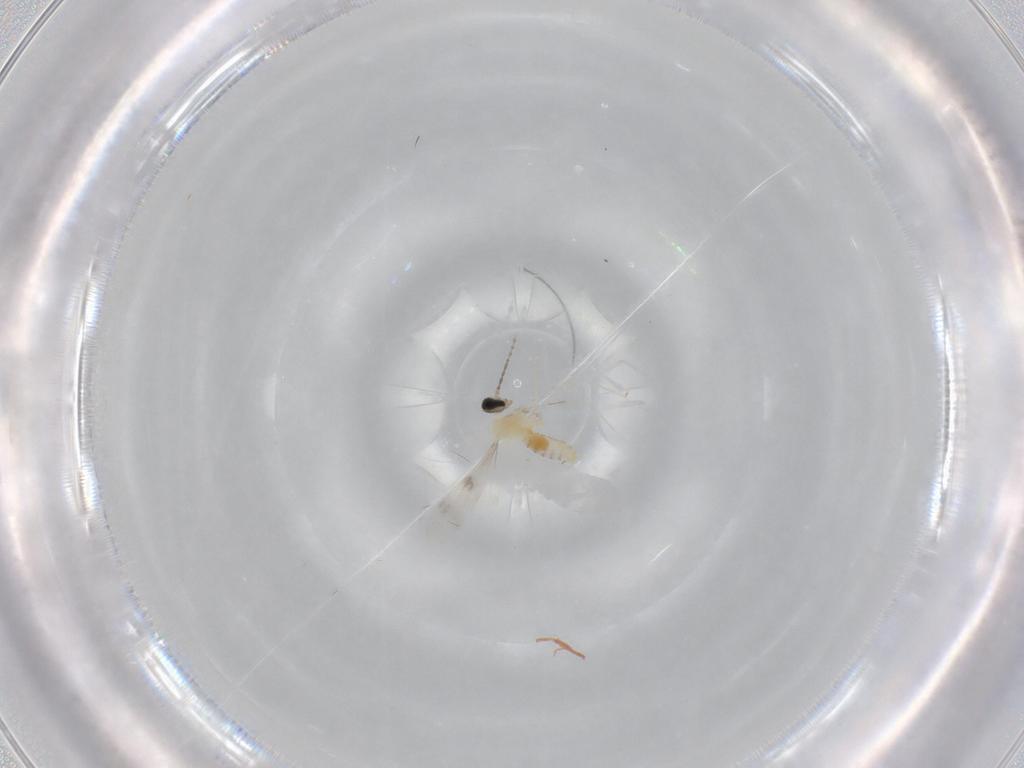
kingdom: Animalia
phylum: Arthropoda
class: Insecta
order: Diptera
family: Cecidomyiidae
